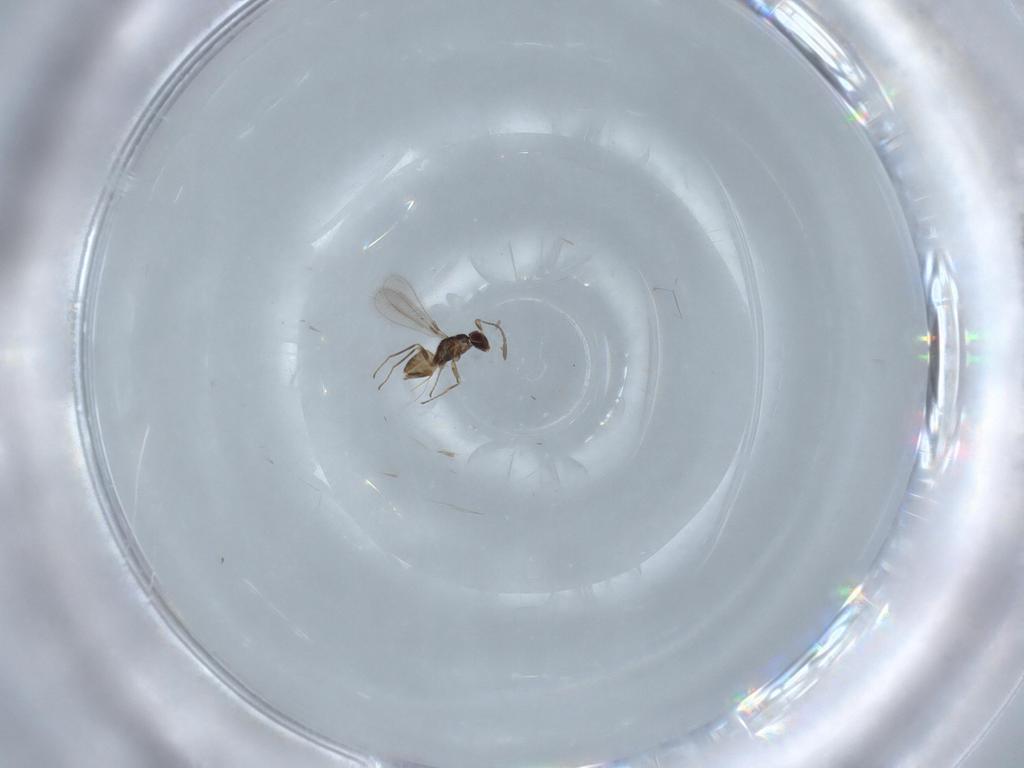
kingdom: Animalia
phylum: Arthropoda
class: Insecta
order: Hymenoptera
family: Mymaridae
